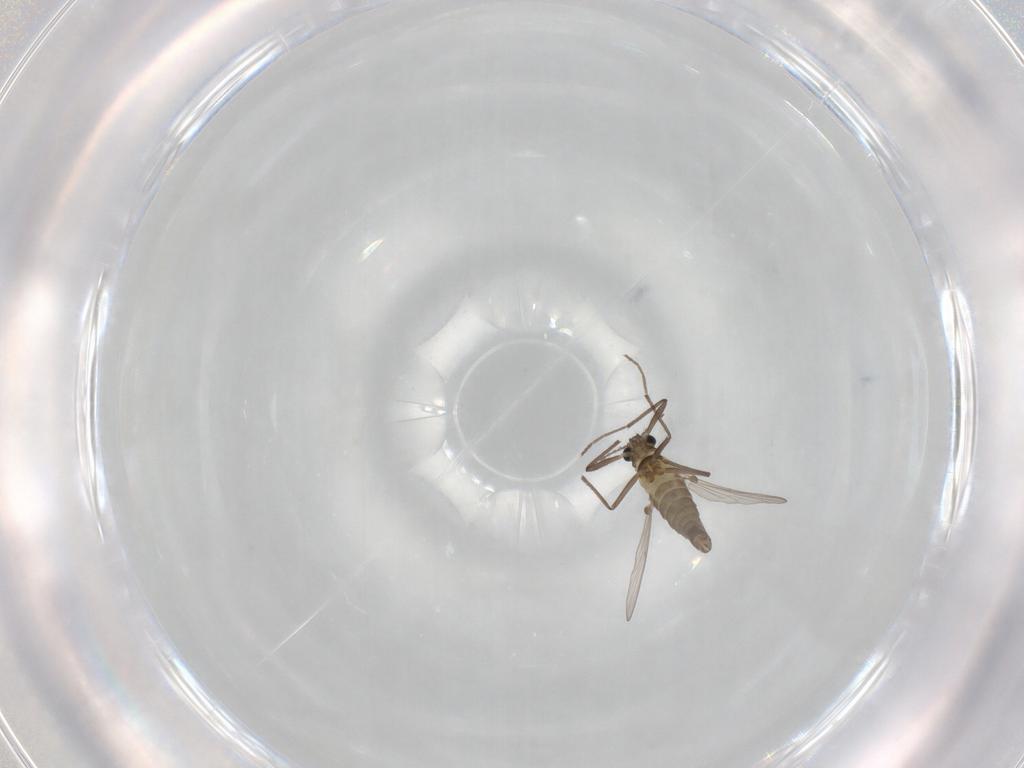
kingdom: Animalia
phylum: Arthropoda
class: Insecta
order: Diptera
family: Chironomidae
